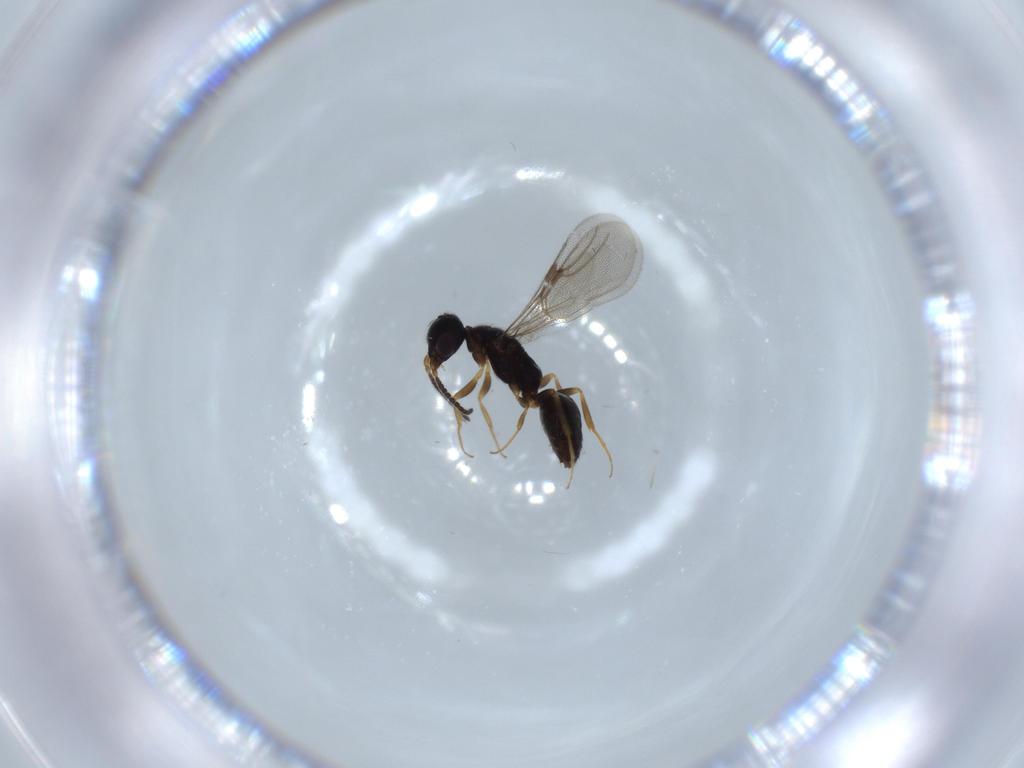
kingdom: Animalia
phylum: Arthropoda
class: Insecta
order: Hymenoptera
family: Bethylidae
